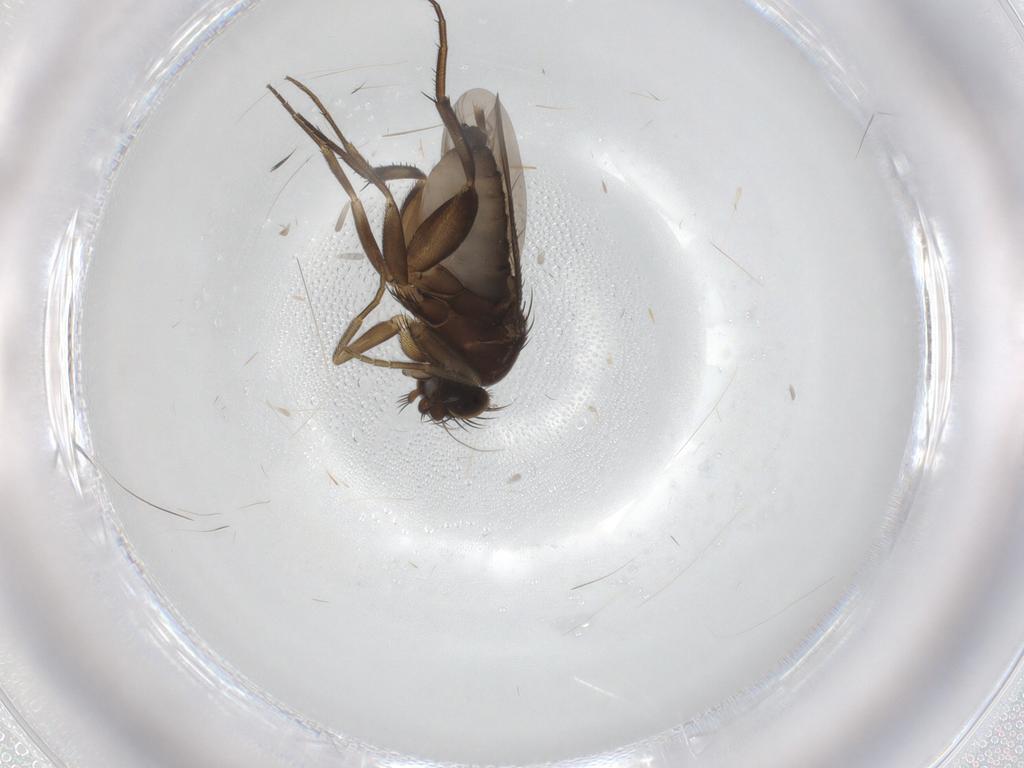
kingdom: Animalia
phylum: Arthropoda
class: Insecta
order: Diptera
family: Phoridae
